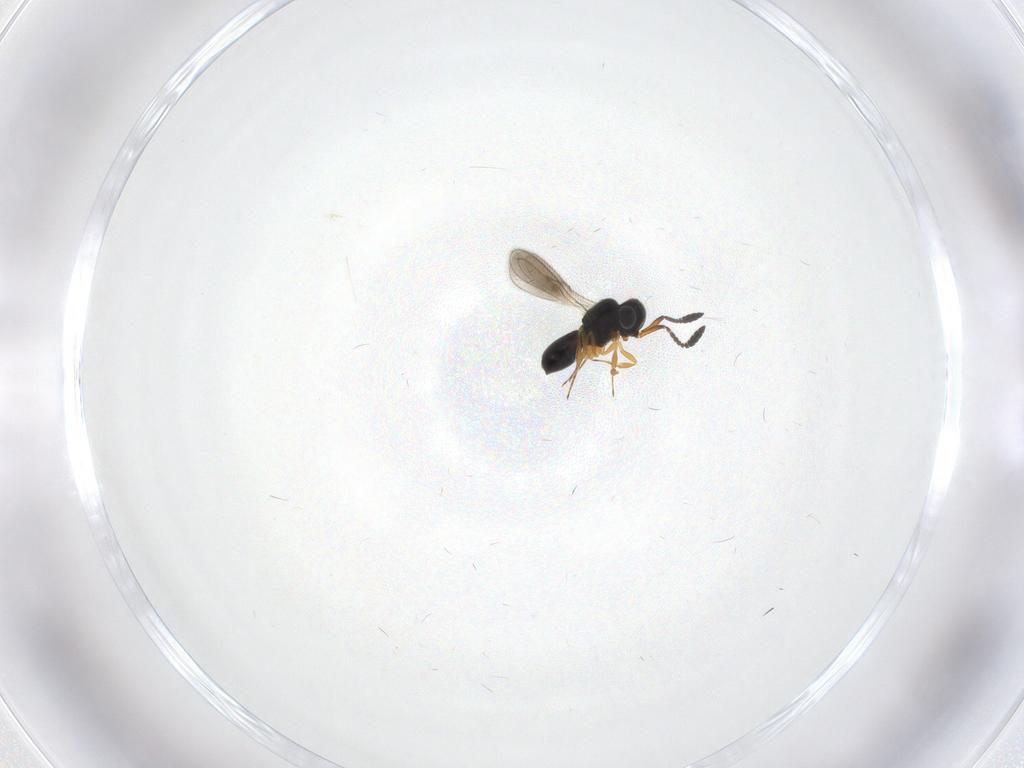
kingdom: Animalia
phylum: Arthropoda
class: Insecta
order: Hymenoptera
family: Scelionidae
